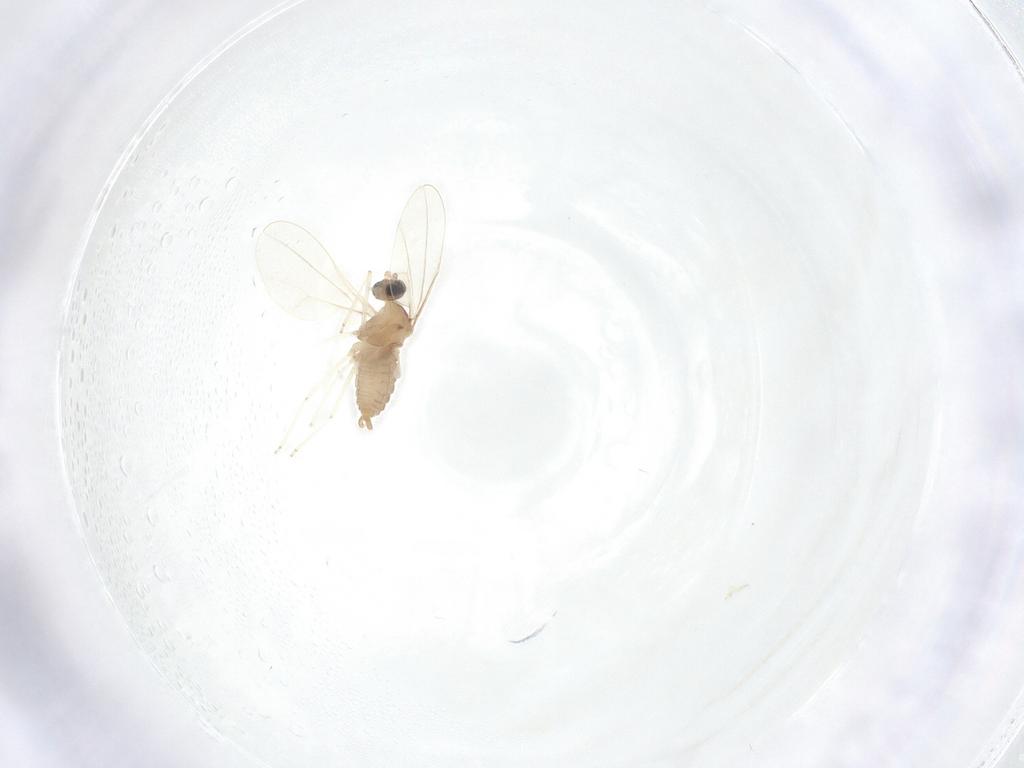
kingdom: Animalia
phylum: Arthropoda
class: Insecta
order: Diptera
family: Cecidomyiidae
